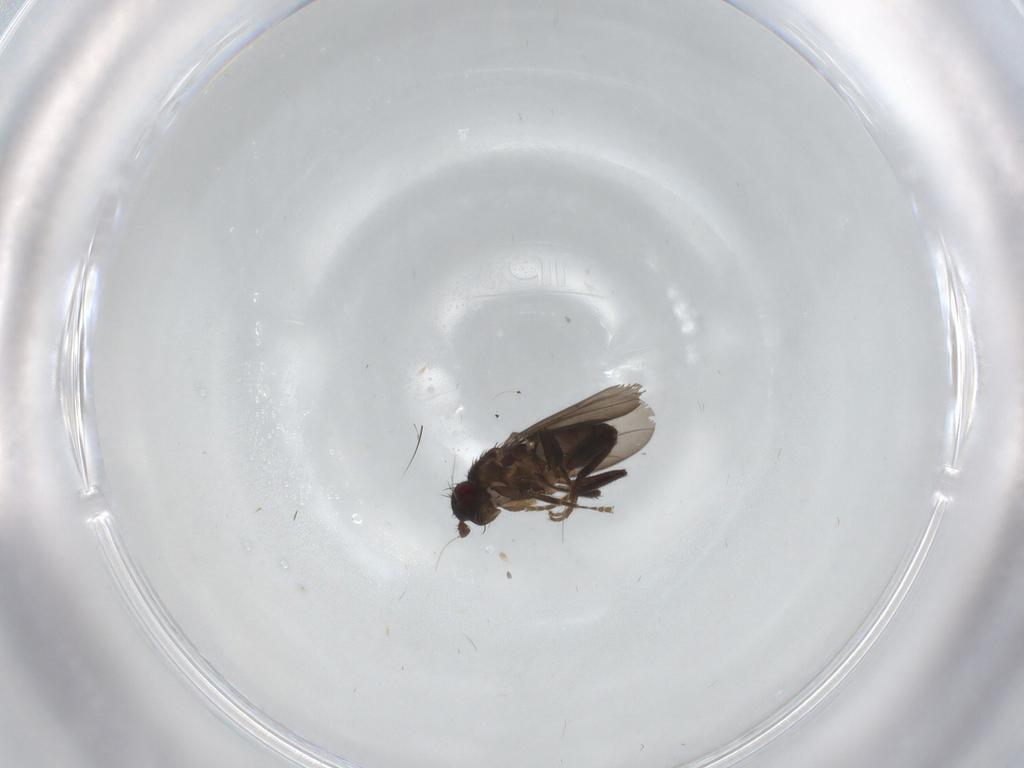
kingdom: Animalia
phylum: Arthropoda
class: Insecta
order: Diptera
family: Sphaeroceridae
